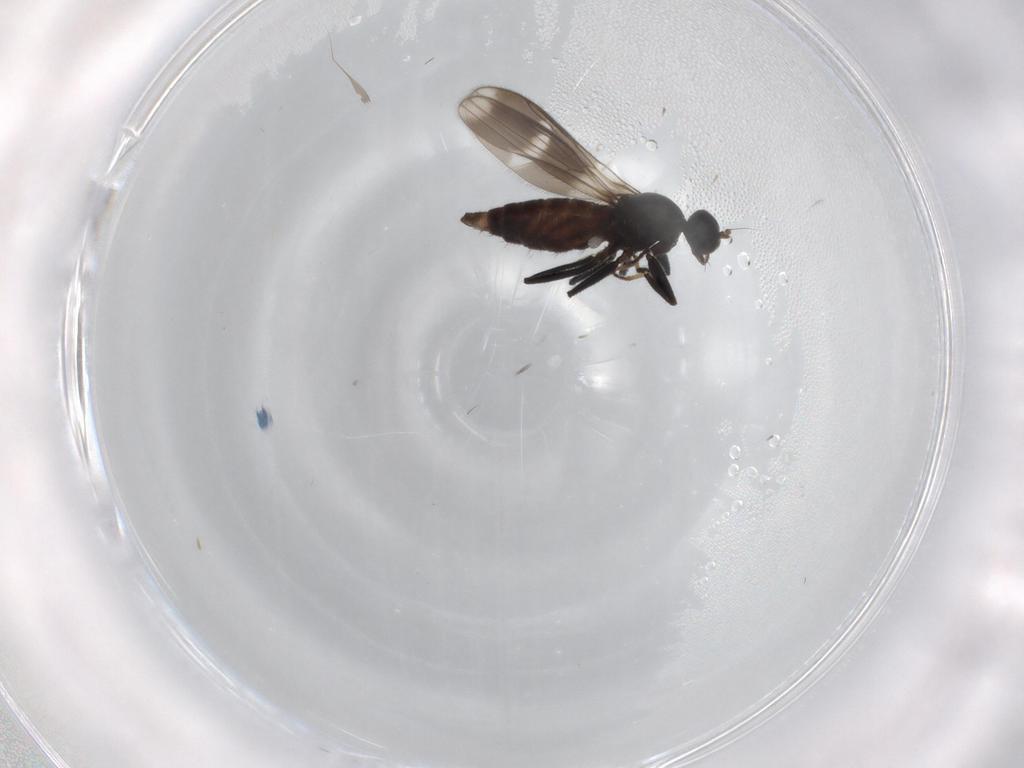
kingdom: Animalia
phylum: Arthropoda
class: Insecta
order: Diptera
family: Hybotidae
